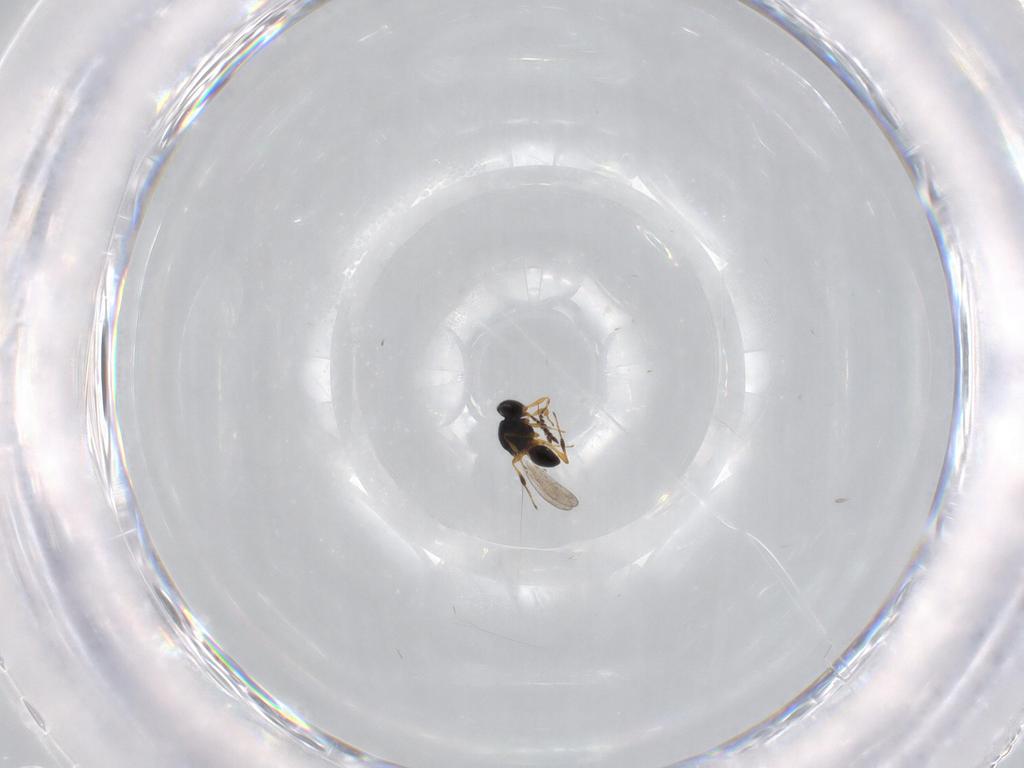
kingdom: Animalia
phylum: Arthropoda
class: Insecta
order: Hymenoptera
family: Platygastridae
